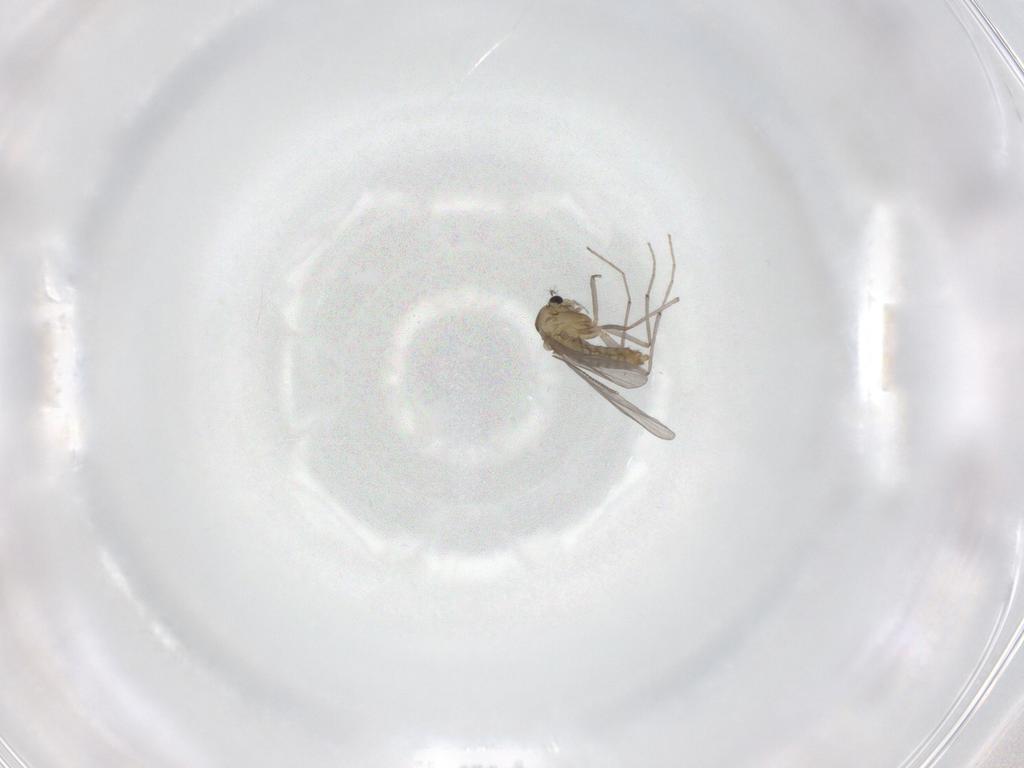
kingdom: Animalia
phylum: Arthropoda
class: Insecta
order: Diptera
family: Chironomidae
